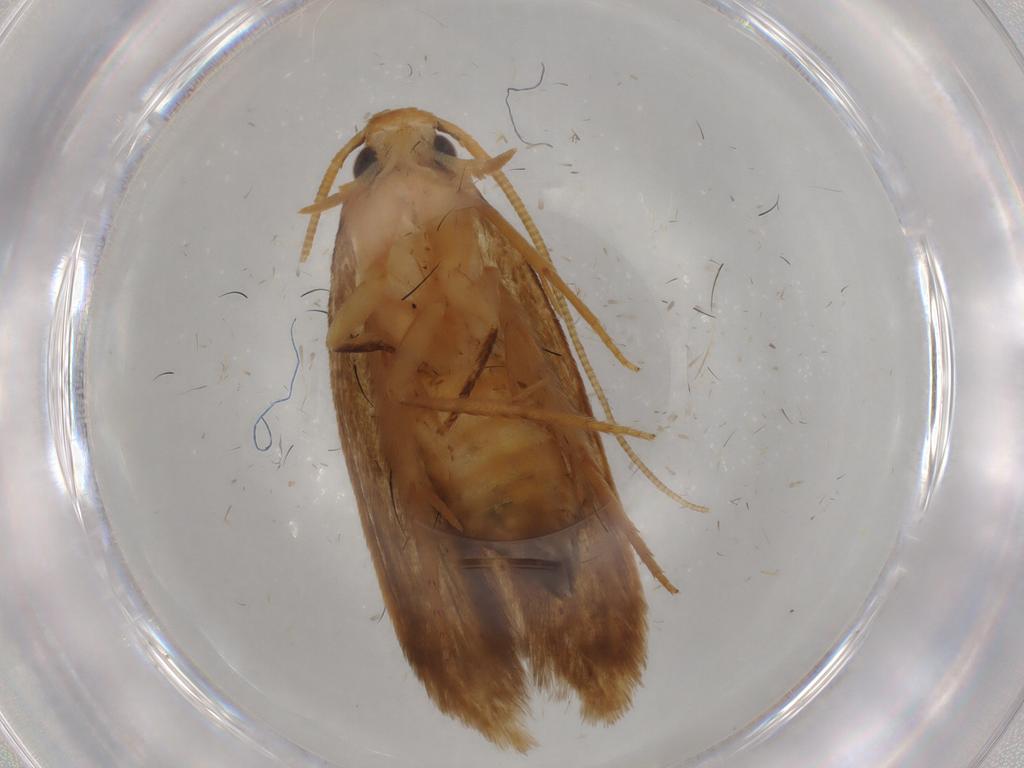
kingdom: Animalia
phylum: Arthropoda
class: Insecta
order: Lepidoptera
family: Tineidae
